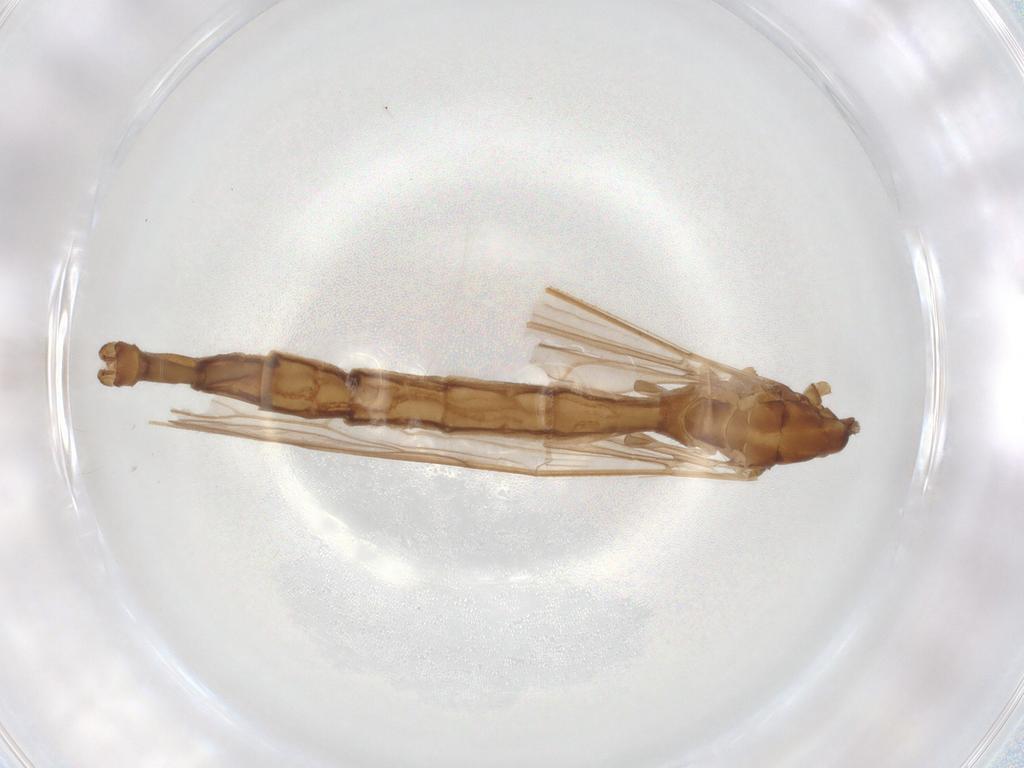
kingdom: Animalia
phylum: Arthropoda
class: Insecta
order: Diptera
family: Limoniidae
